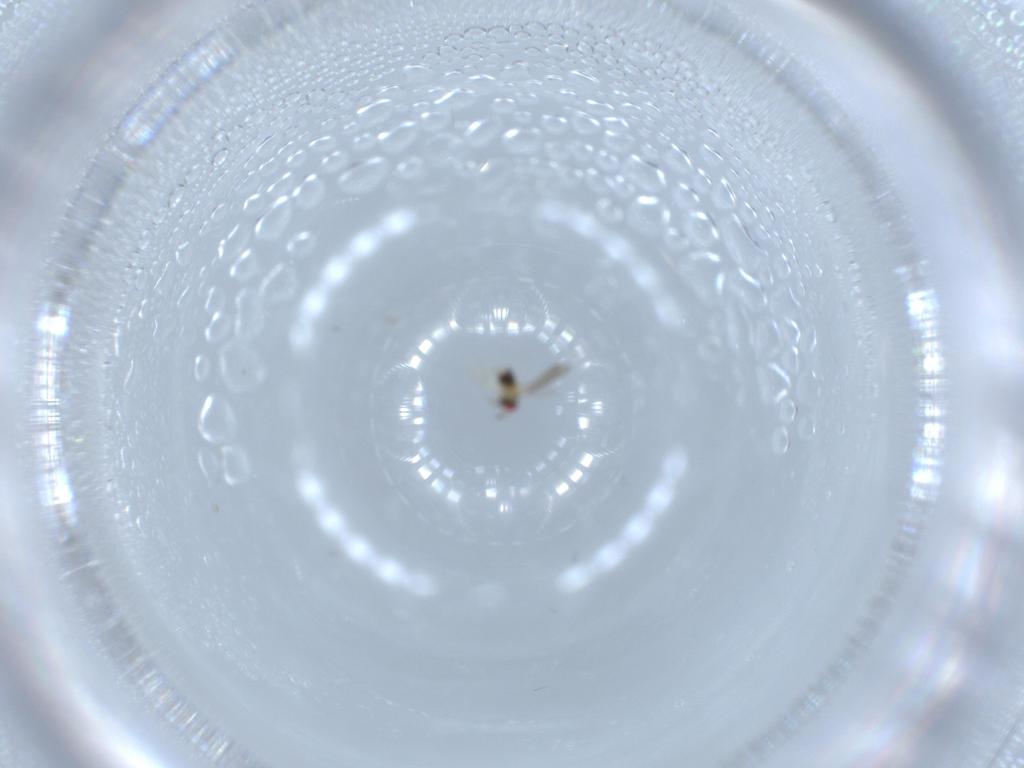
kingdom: Animalia
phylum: Arthropoda
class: Insecta
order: Hymenoptera
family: Aphelinidae
